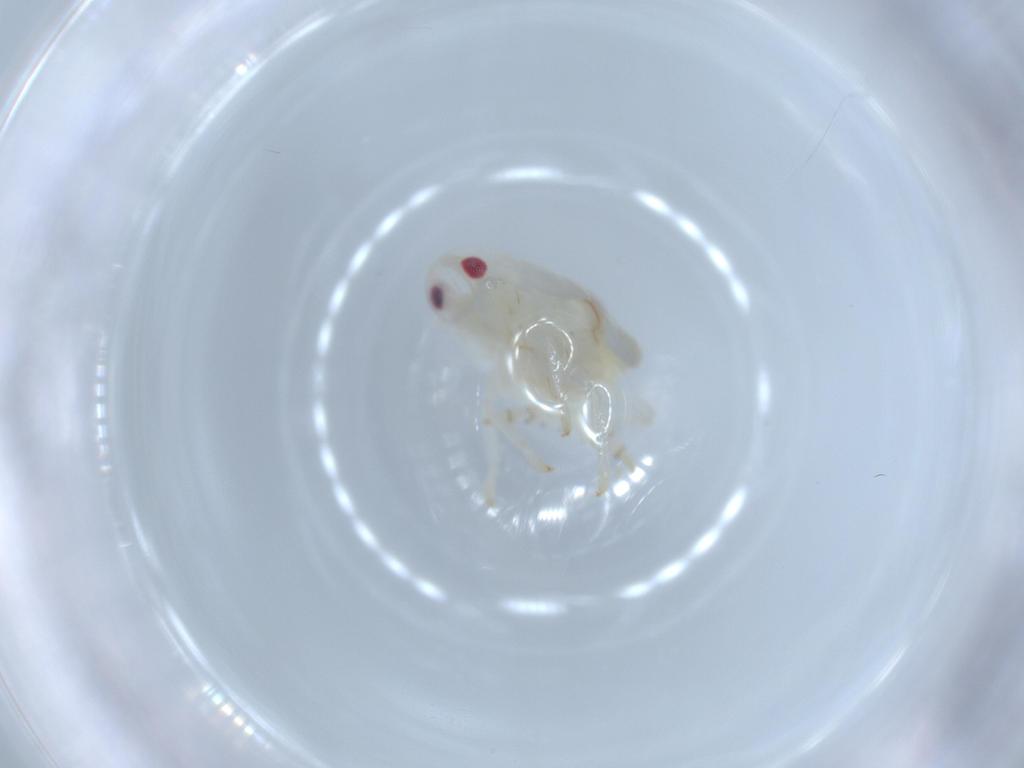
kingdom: Animalia
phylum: Arthropoda
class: Insecta
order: Hemiptera
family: Flatidae
